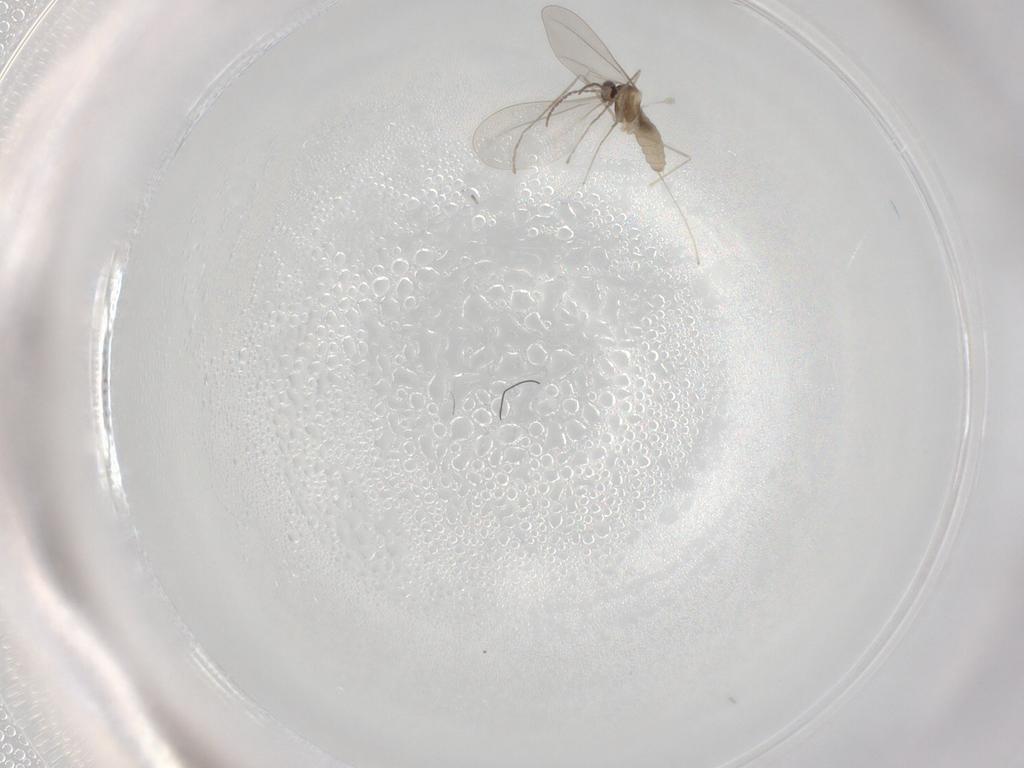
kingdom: Animalia
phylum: Arthropoda
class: Insecta
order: Diptera
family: Cecidomyiidae
